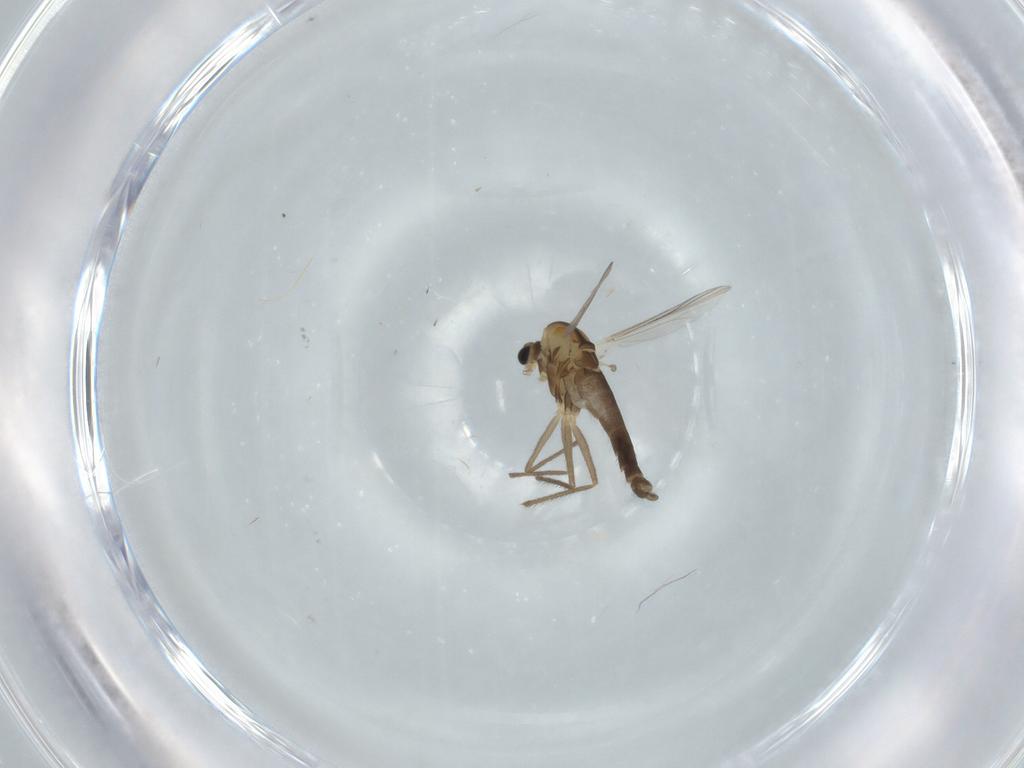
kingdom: Animalia
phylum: Arthropoda
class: Insecta
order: Diptera
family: Chironomidae
